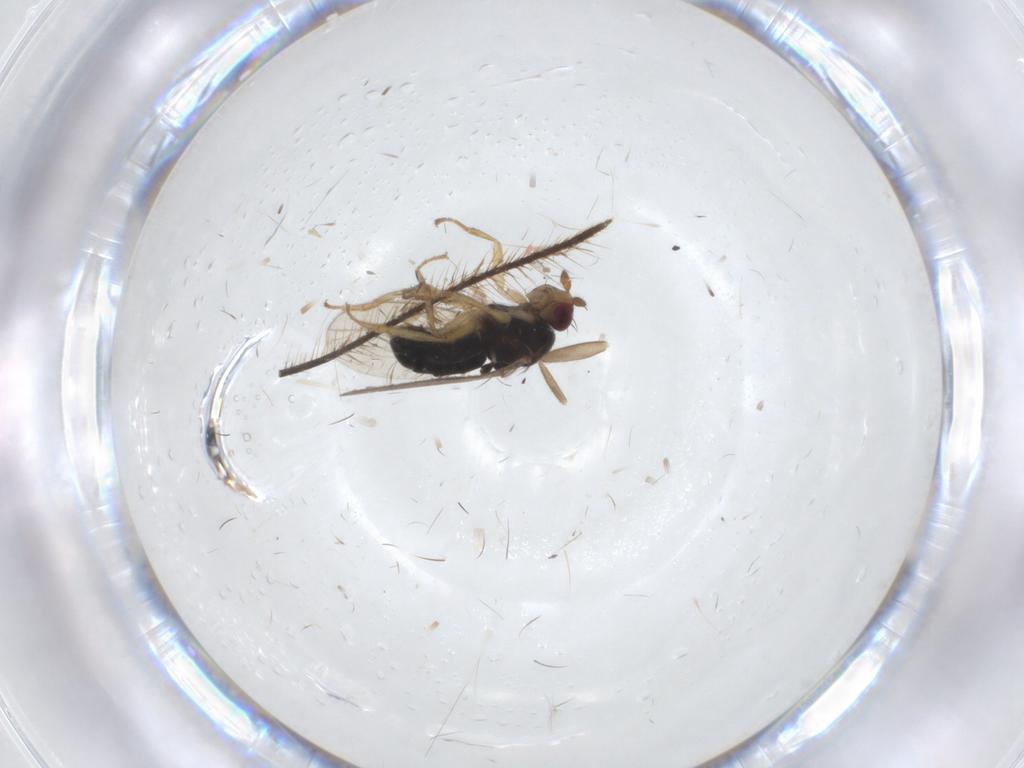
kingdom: Animalia
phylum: Arthropoda
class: Insecta
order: Diptera
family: Sphaeroceridae
